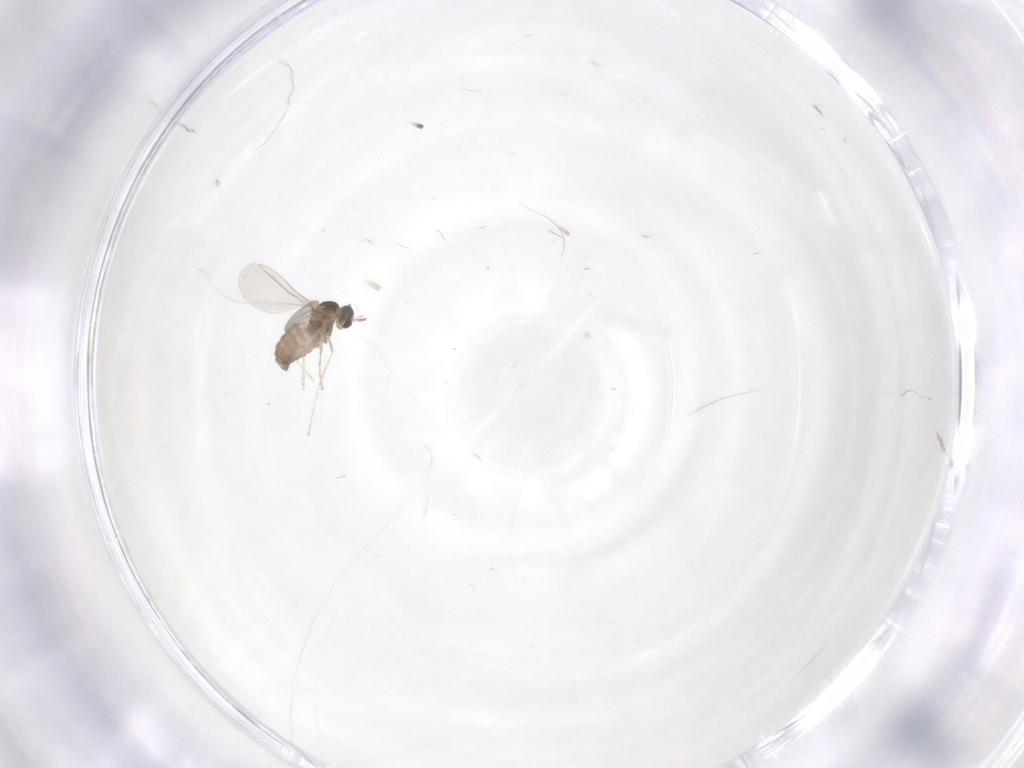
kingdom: Animalia
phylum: Arthropoda
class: Insecta
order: Diptera
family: Cecidomyiidae
